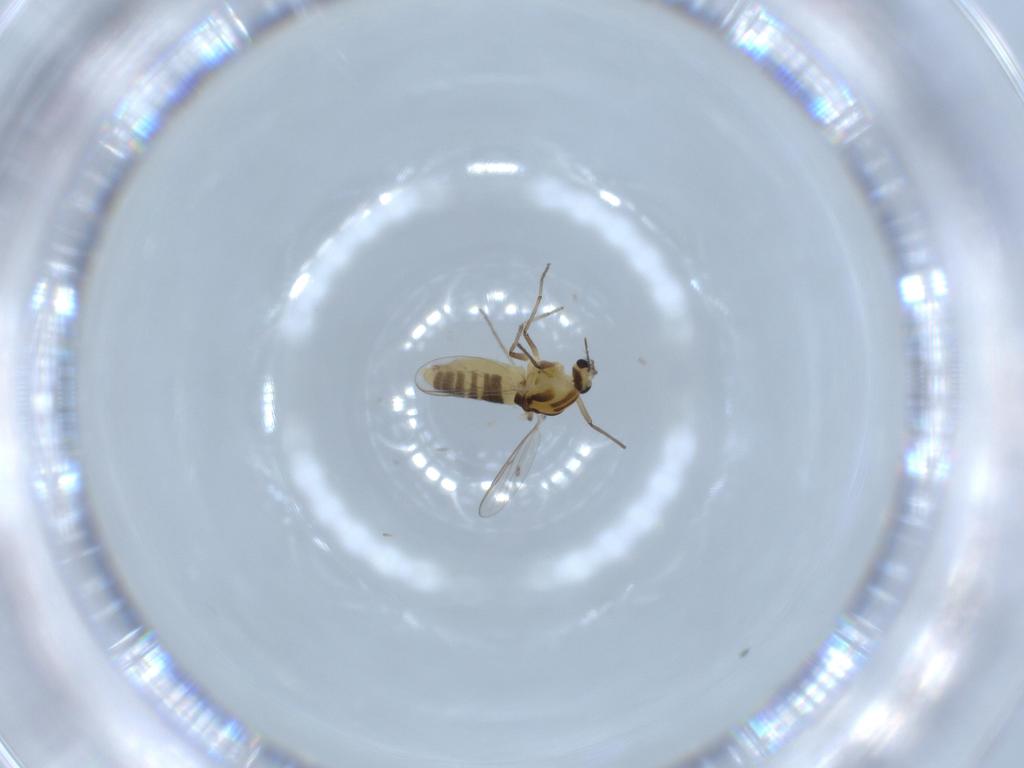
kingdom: Animalia
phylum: Arthropoda
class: Insecta
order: Diptera
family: Chironomidae
